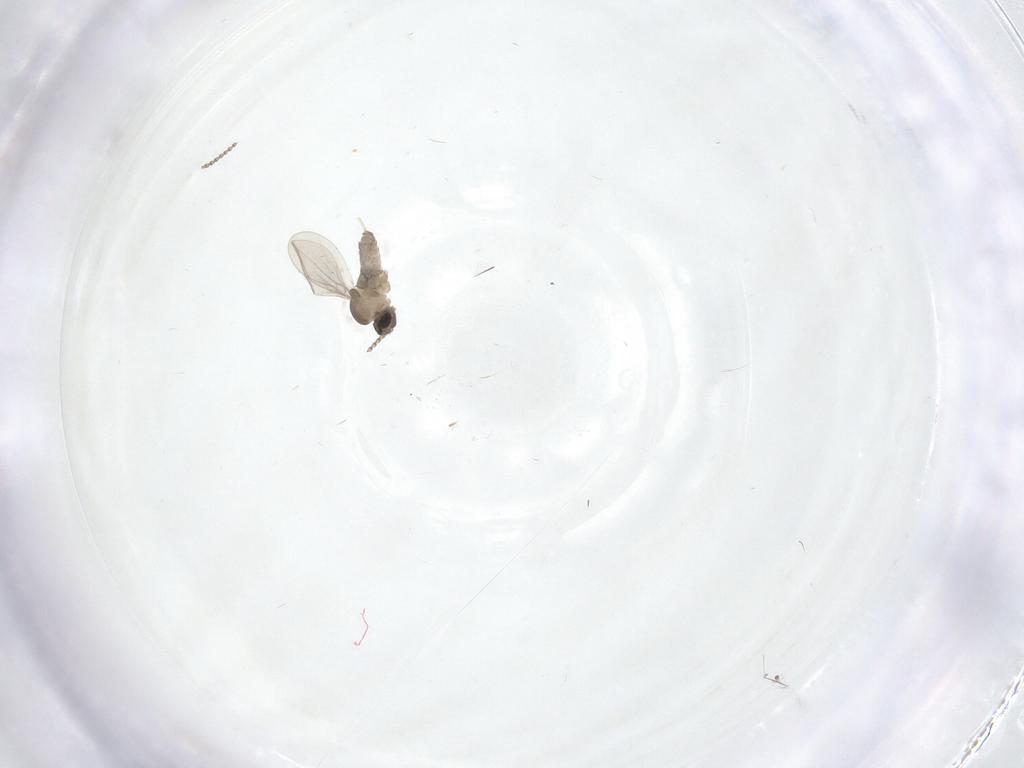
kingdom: Animalia
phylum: Arthropoda
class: Insecta
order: Diptera
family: Cecidomyiidae
